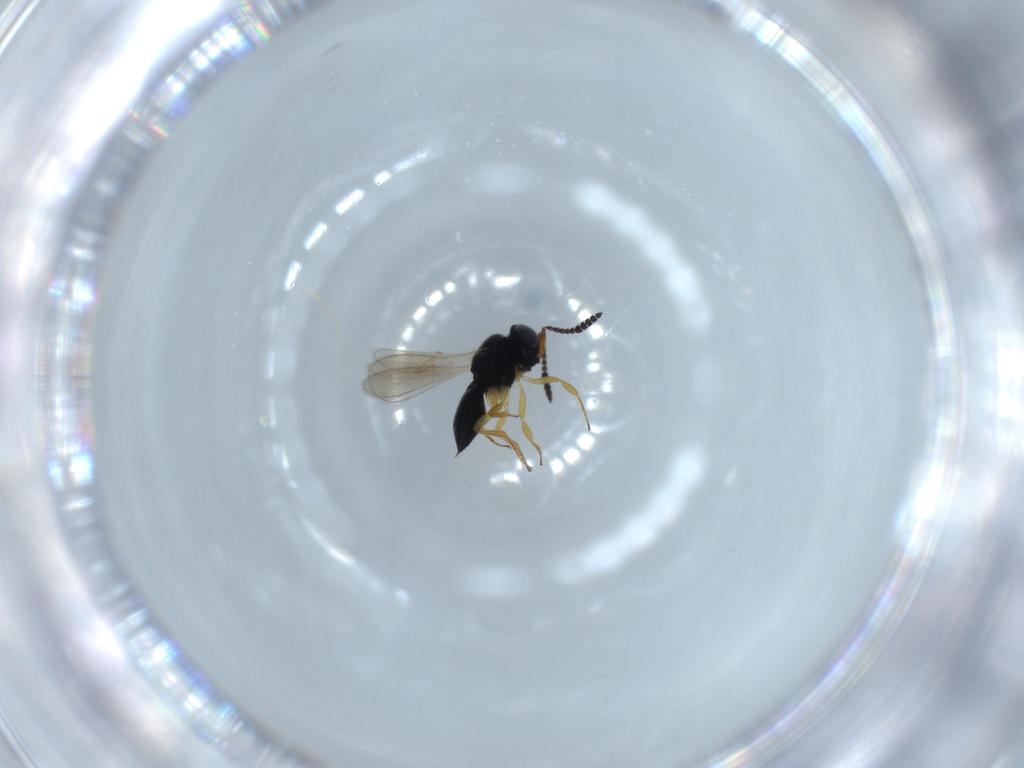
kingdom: Animalia
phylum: Arthropoda
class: Insecta
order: Hymenoptera
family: Scelionidae
